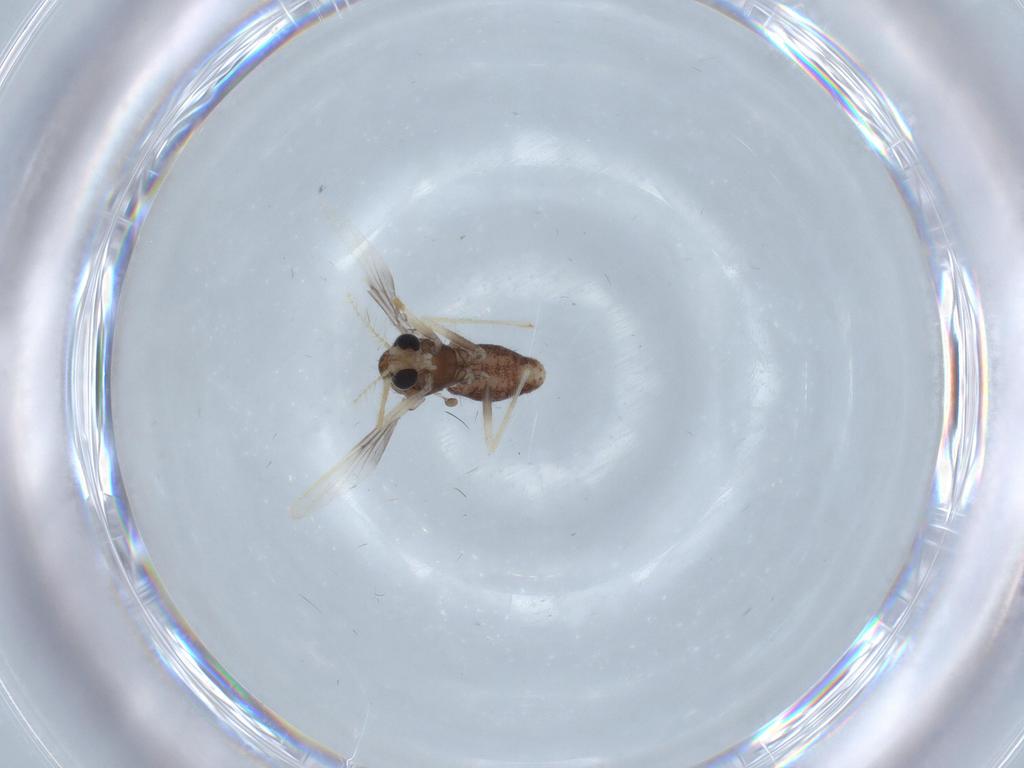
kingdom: Animalia
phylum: Arthropoda
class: Insecta
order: Diptera
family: Chironomidae
